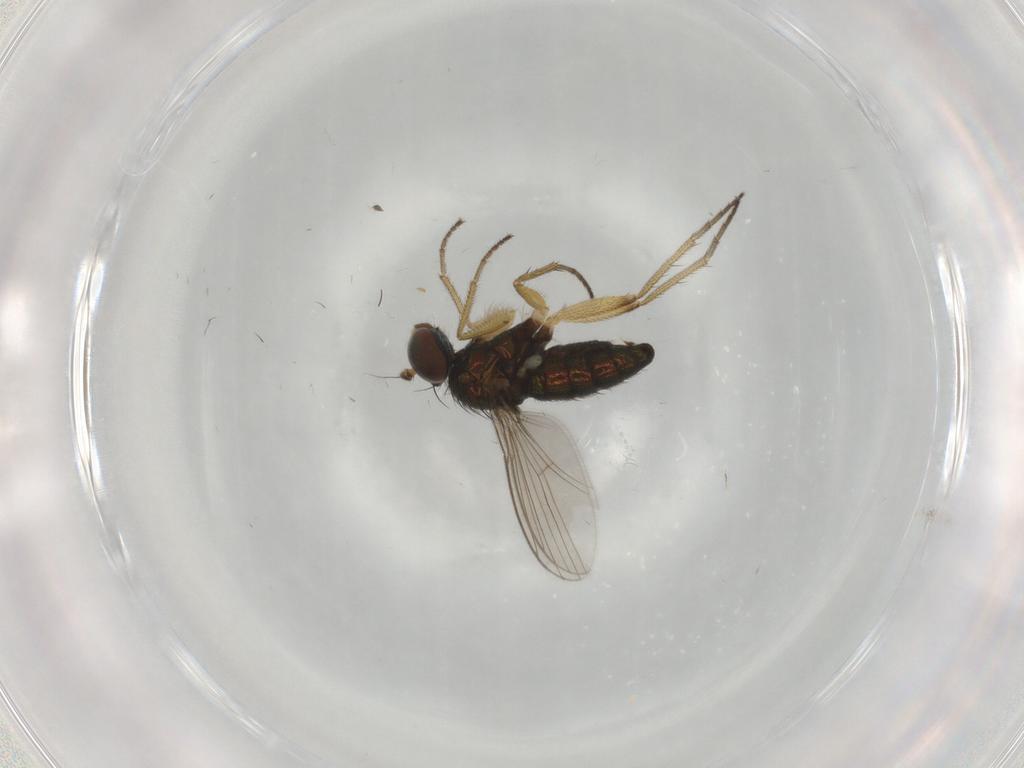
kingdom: Animalia
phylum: Arthropoda
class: Insecta
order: Diptera
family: Dolichopodidae
